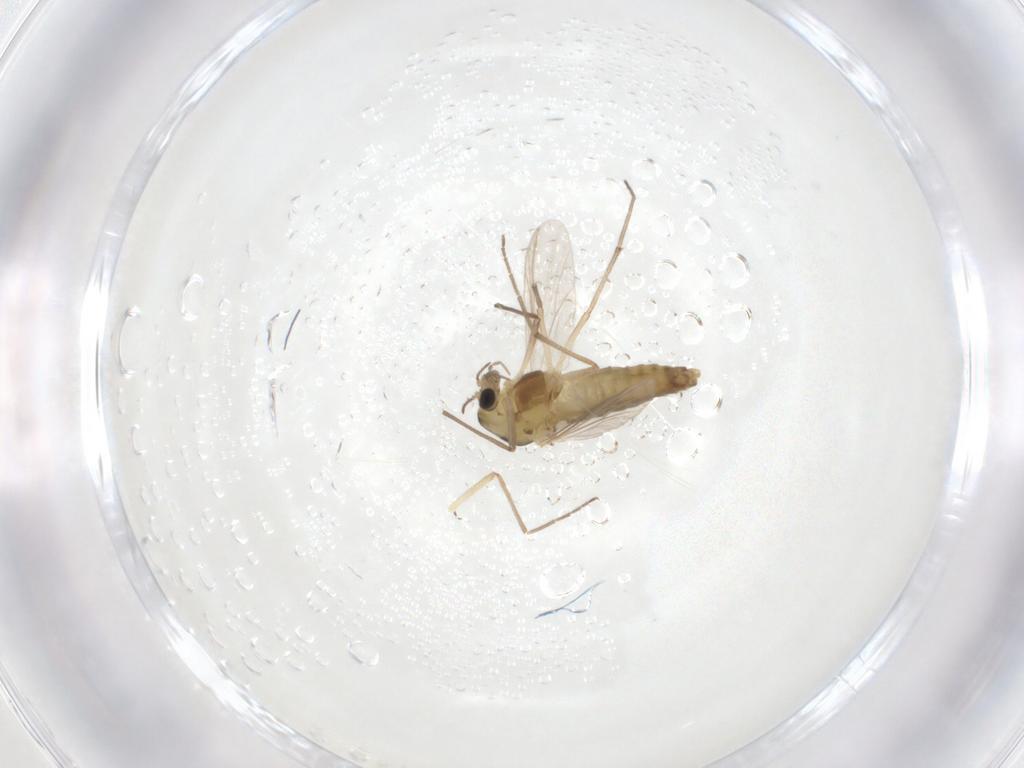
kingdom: Animalia
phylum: Arthropoda
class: Insecta
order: Diptera
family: Chironomidae
